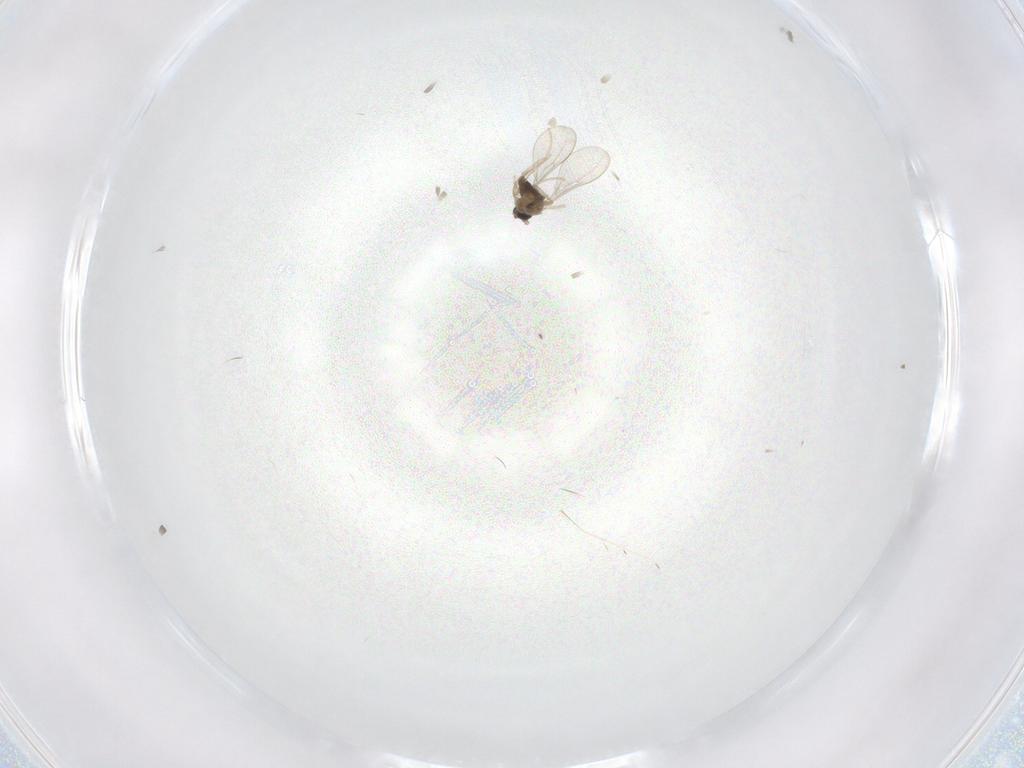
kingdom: Animalia
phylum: Arthropoda
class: Insecta
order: Diptera
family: Cecidomyiidae
